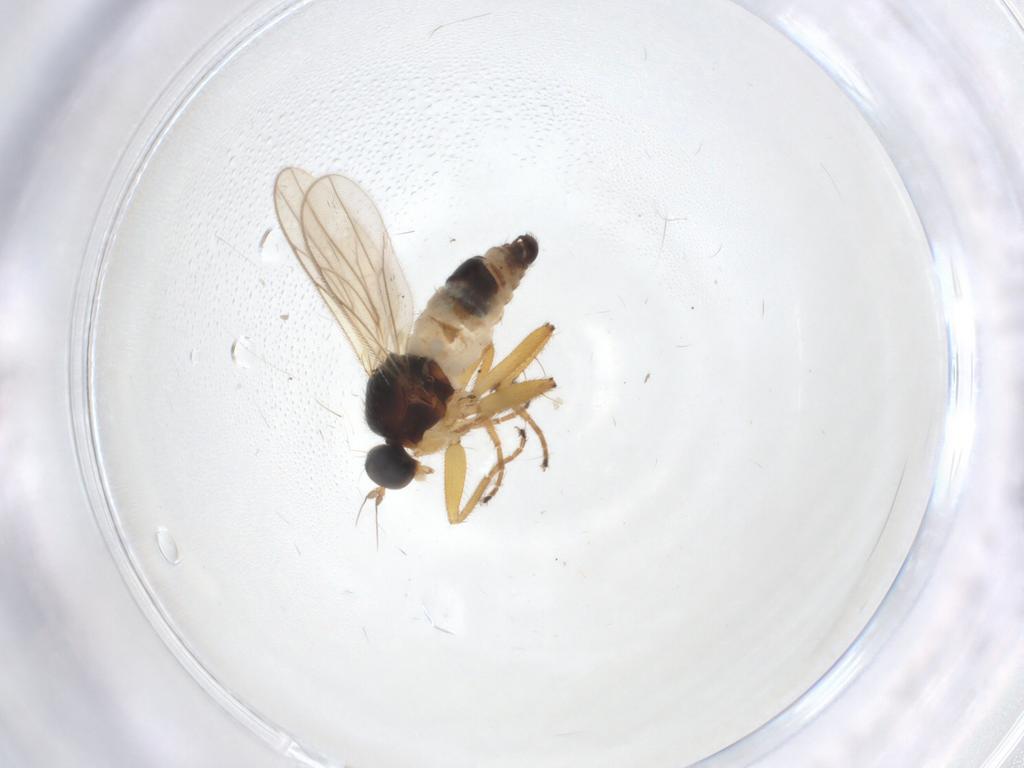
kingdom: Animalia
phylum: Arthropoda
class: Insecta
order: Diptera
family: Hybotidae
